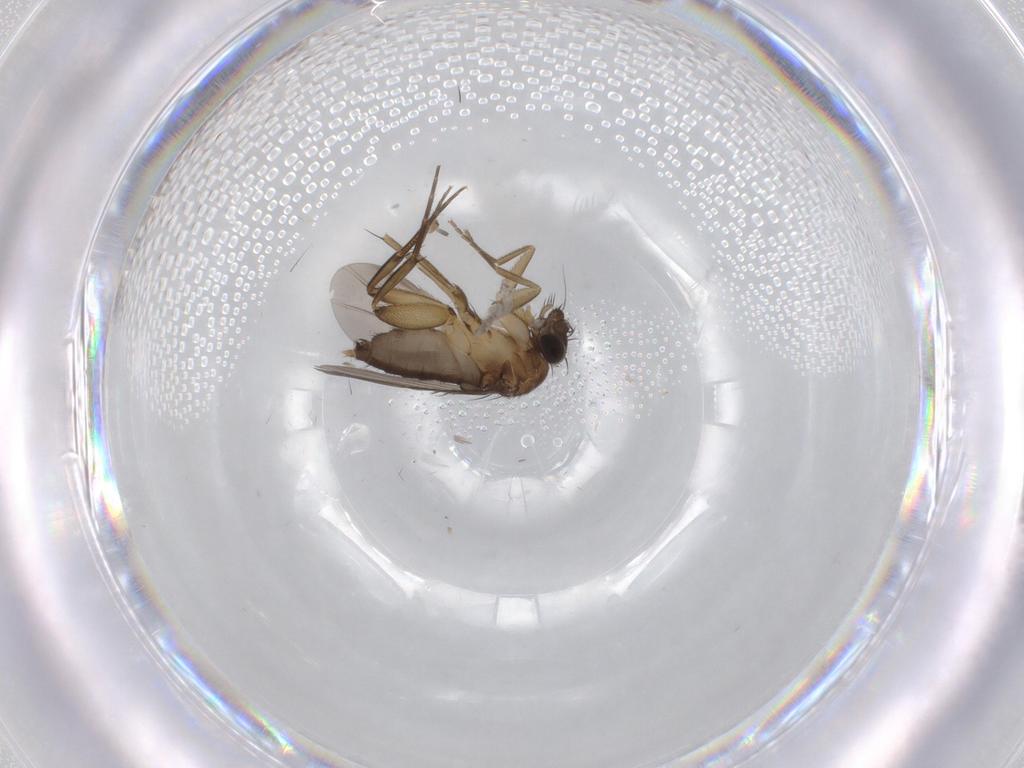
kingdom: Animalia
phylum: Arthropoda
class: Insecta
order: Diptera
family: Phoridae
